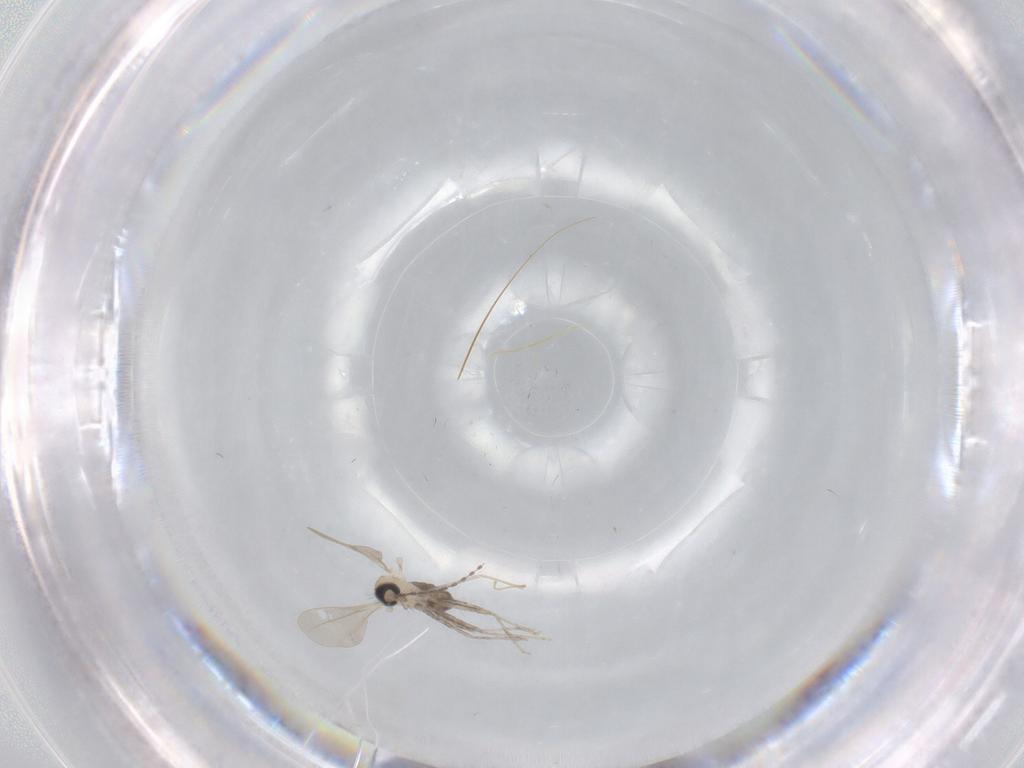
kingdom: Animalia
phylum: Arthropoda
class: Insecta
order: Diptera
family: Cecidomyiidae
